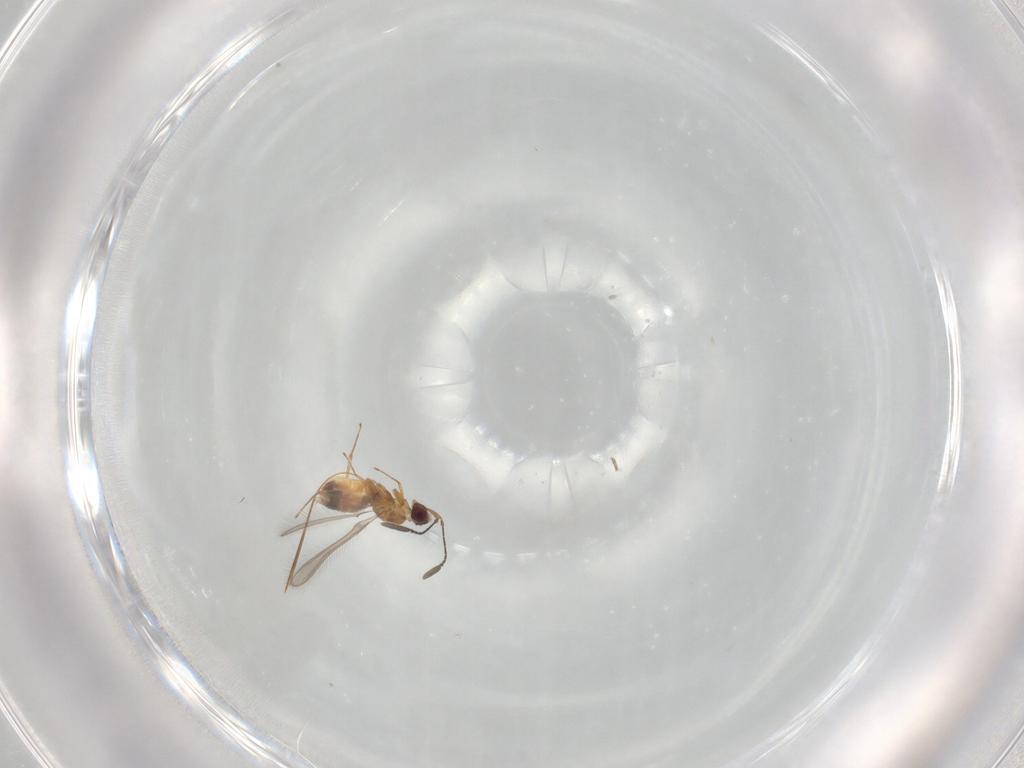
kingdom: Animalia
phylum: Arthropoda
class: Insecta
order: Hymenoptera
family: Mymaridae
